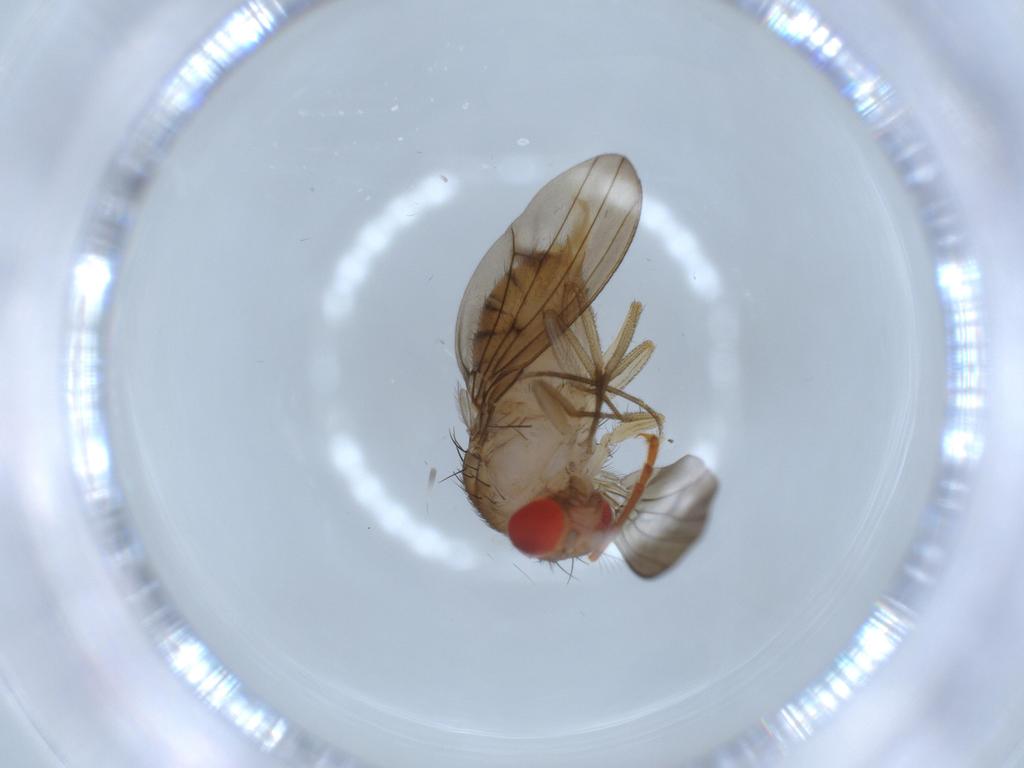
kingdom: Animalia
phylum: Arthropoda
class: Insecta
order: Diptera
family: Drosophilidae
